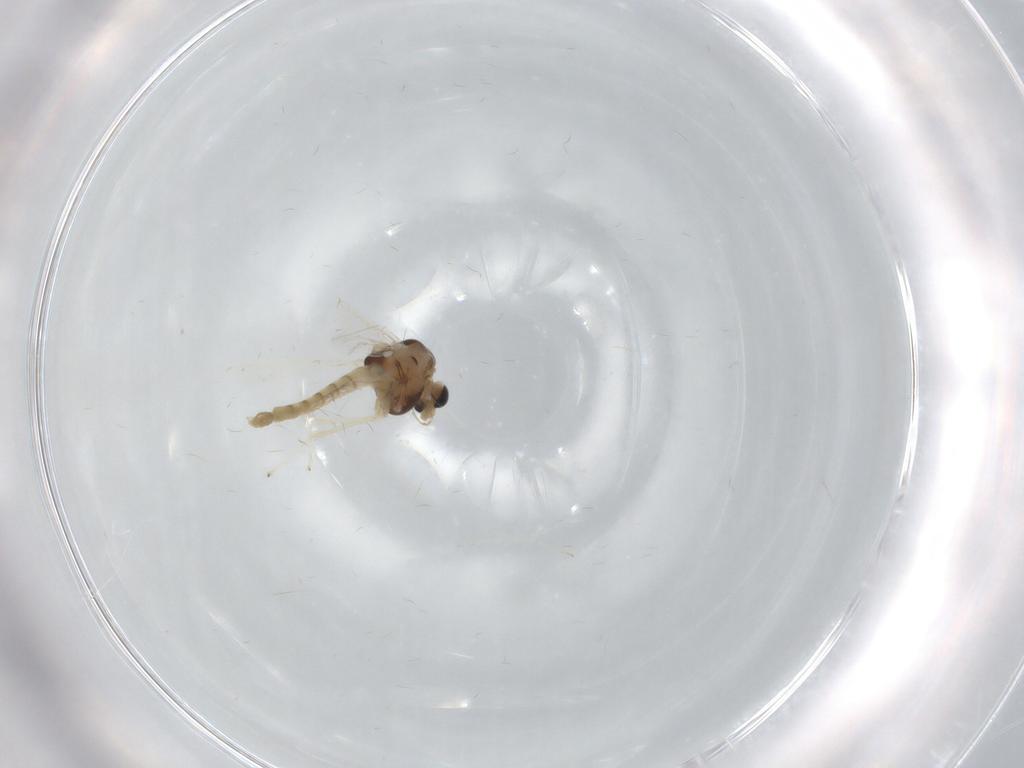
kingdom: Animalia
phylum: Arthropoda
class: Insecta
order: Diptera
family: Chironomidae
